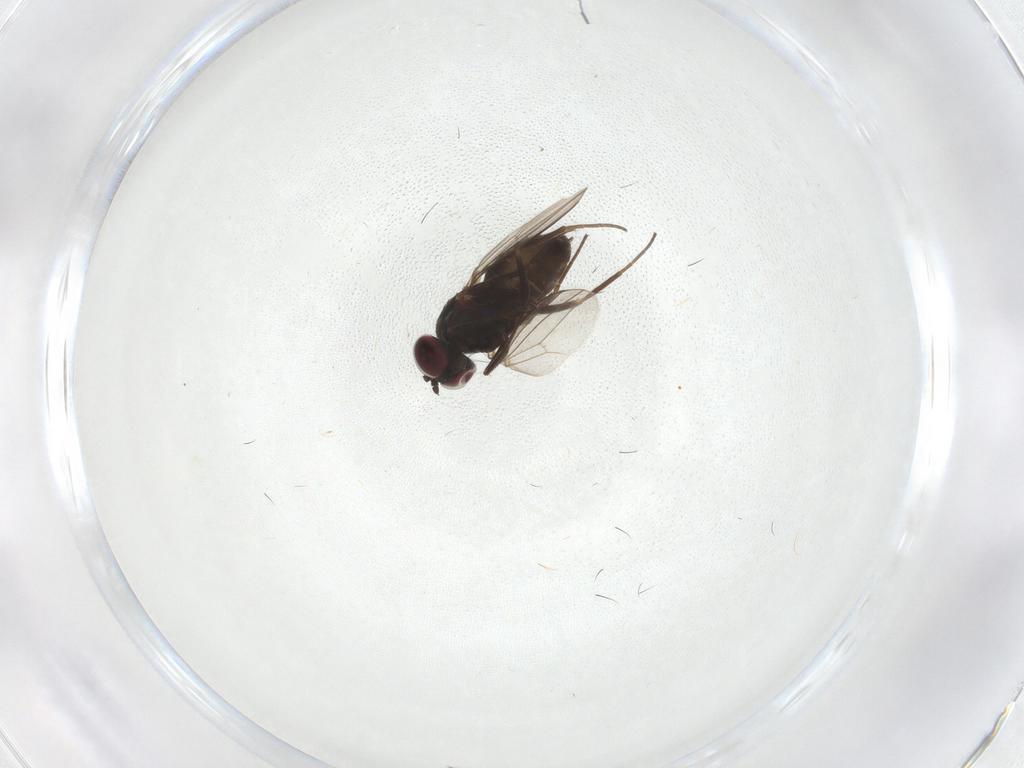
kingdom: Animalia
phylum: Arthropoda
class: Insecta
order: Diptera
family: Dolichopodidae
